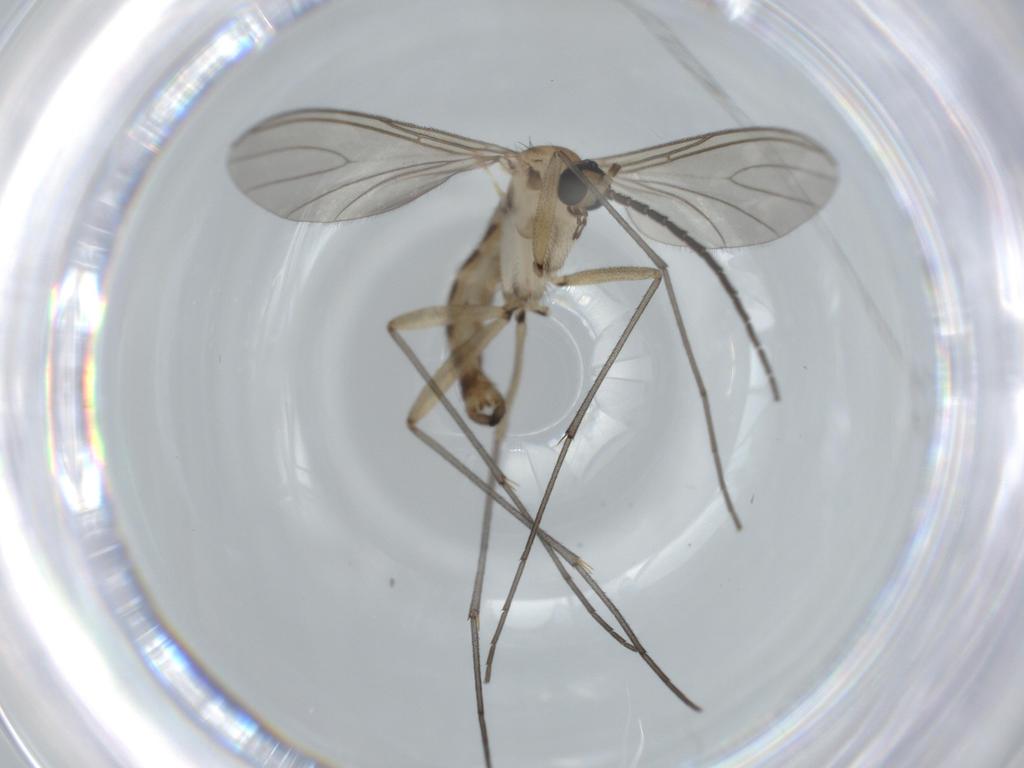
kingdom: Animalia
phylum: Arthropoda
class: Insecta
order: Diptera
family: Sciaridae
